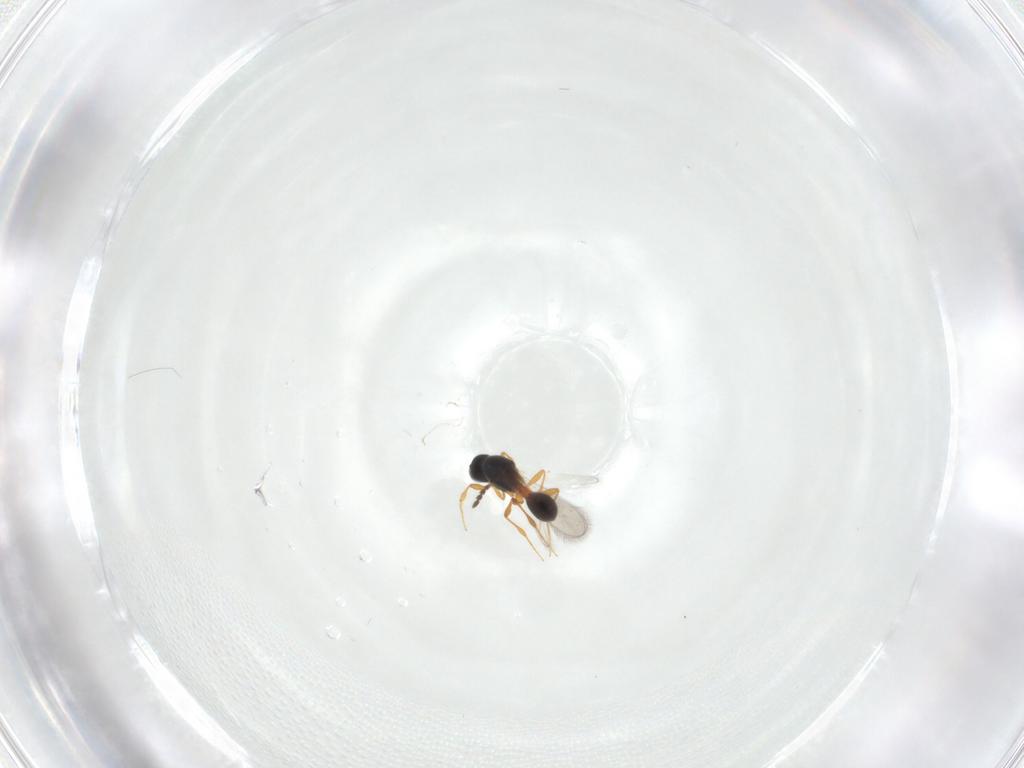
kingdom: Animalia
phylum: Arthropoda
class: Insecta
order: Hymenoptera
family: Platygastridae
